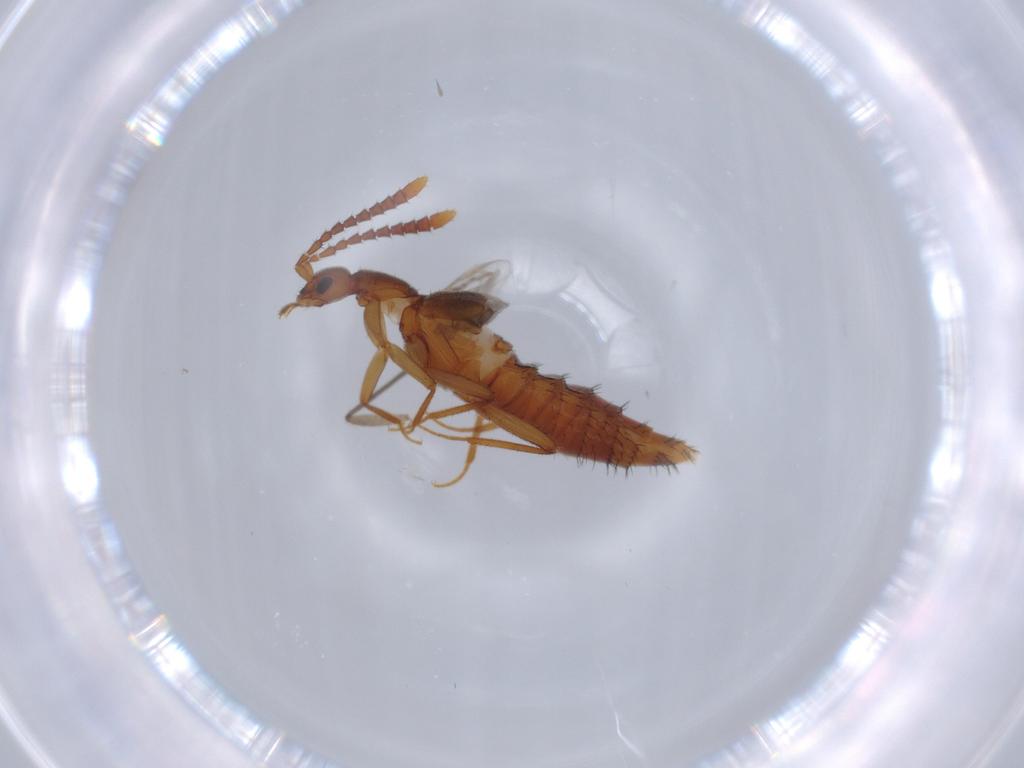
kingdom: Animalia
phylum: Arthropoda
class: Insecta
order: Coleoptera
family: Staphylinidae
